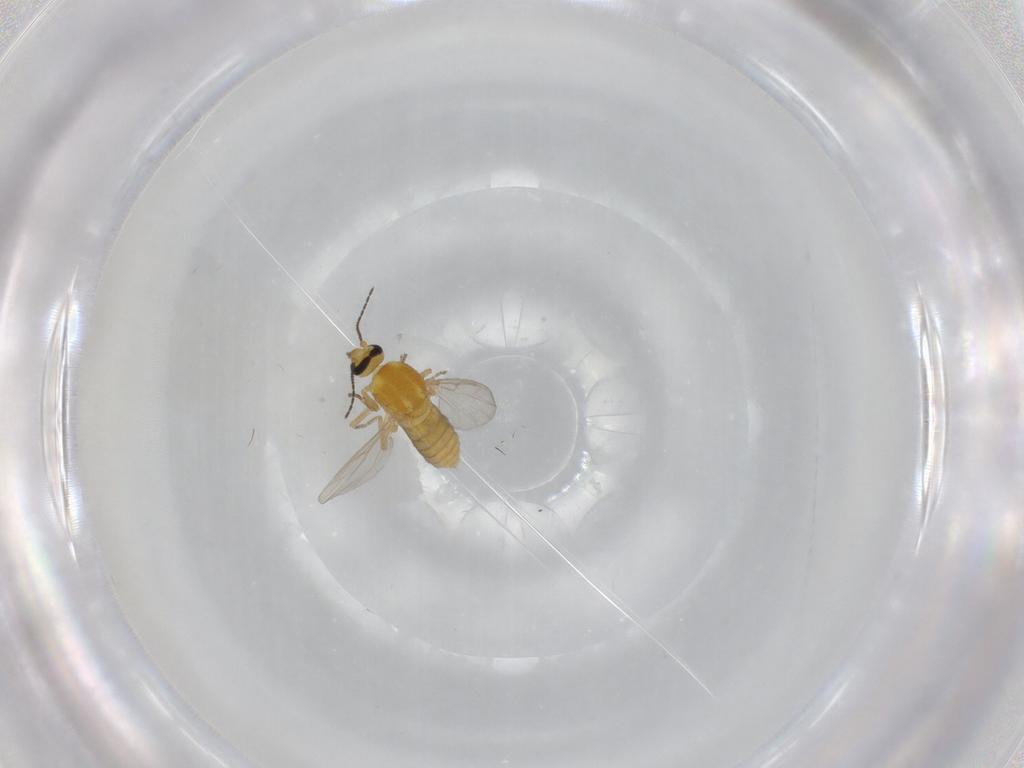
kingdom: Animalia
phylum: Arthropoda
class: Insecta
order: Diptera
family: Ceratopogonidae
